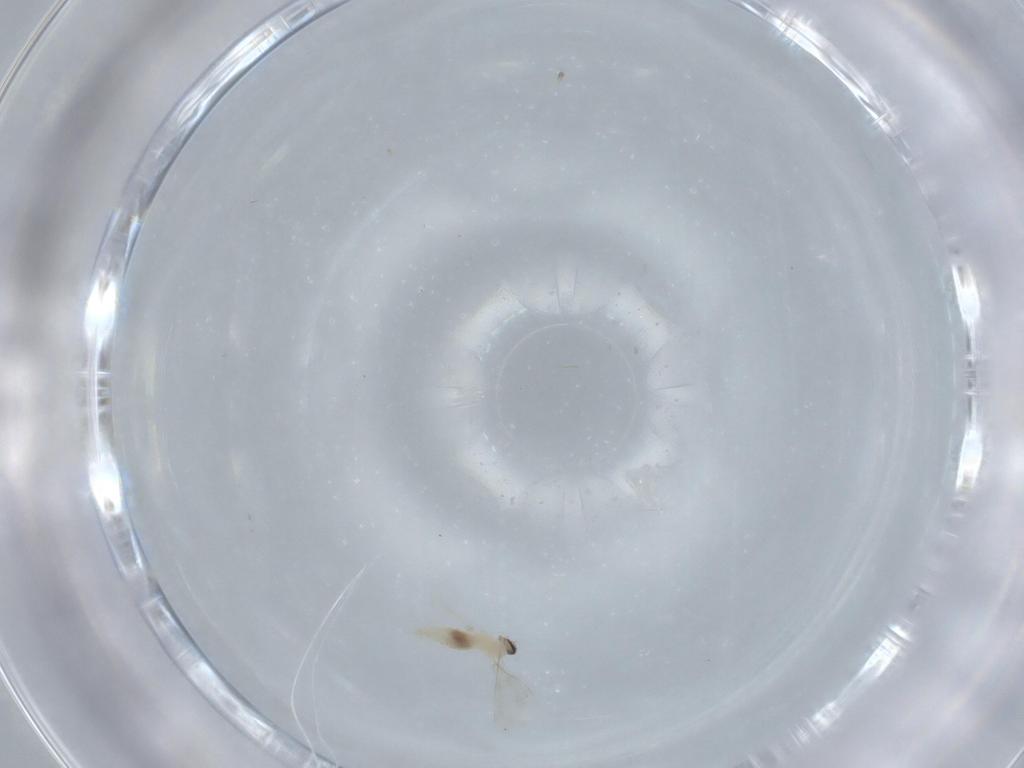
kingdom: Animalia
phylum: Arthropoda
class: Insecta
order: Diptera
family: Cecidomyiidae
